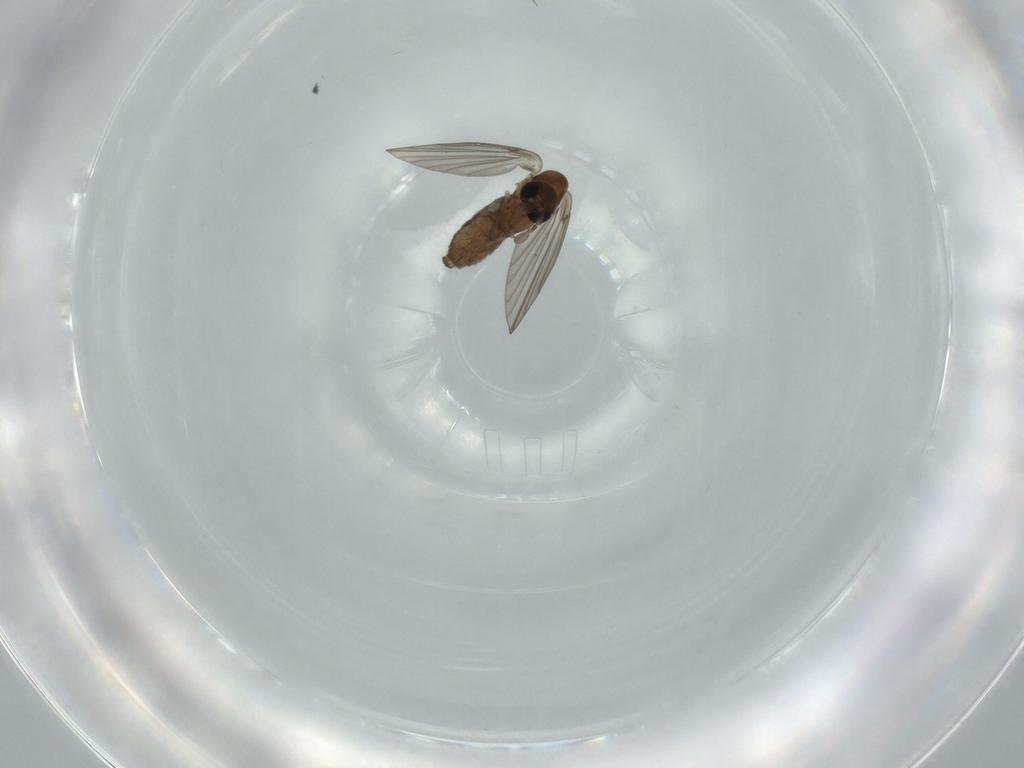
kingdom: Animalia
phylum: Arthropoda
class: Insecta
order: Diptera
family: Psychodidae
